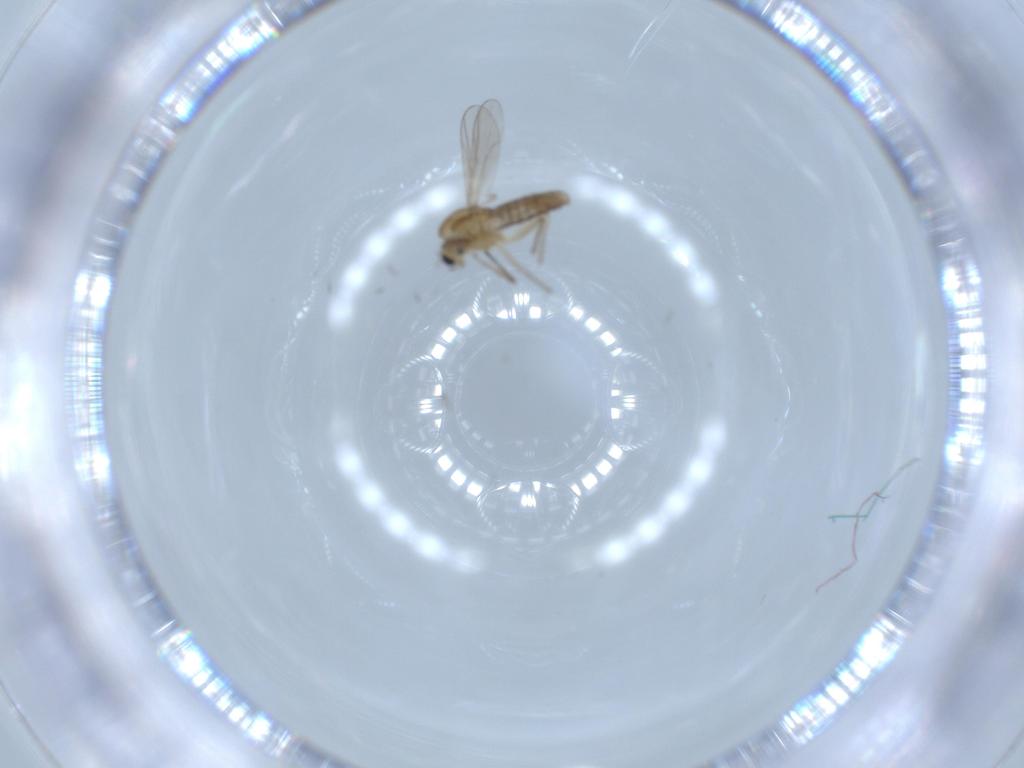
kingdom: Animalia
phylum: Arthropoda
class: Insecta
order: Diptera
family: Chironomidae
